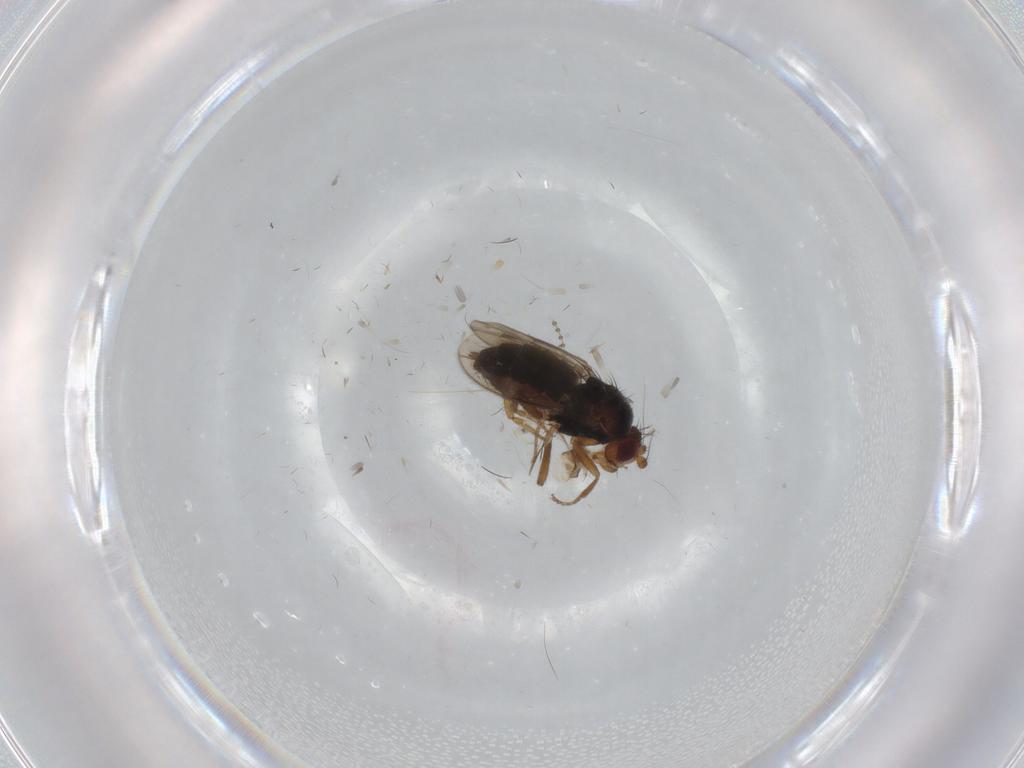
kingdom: Animalia
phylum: Arthropoda
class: Insecta
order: Diptera
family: Sphaeroceridae
